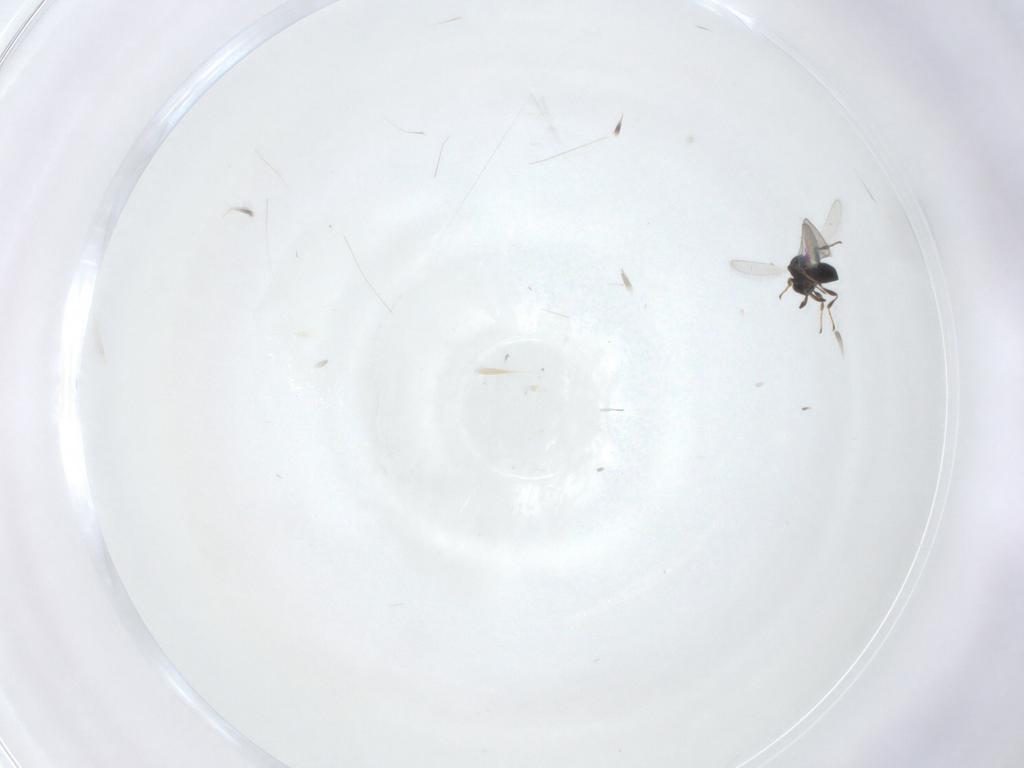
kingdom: Animalia
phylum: Arthropoda
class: Insecta
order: Hymenoptera
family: Platygastridae
